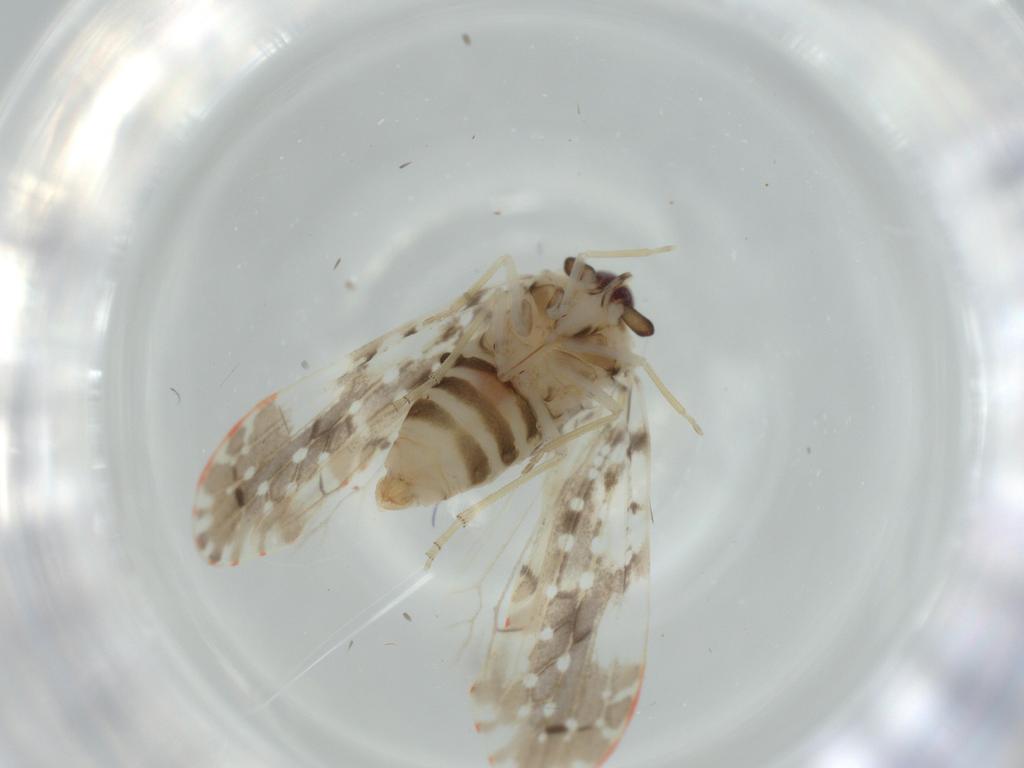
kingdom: Animalia
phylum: Arthropoda
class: Insecta
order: Hemiptera
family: Derbidae
